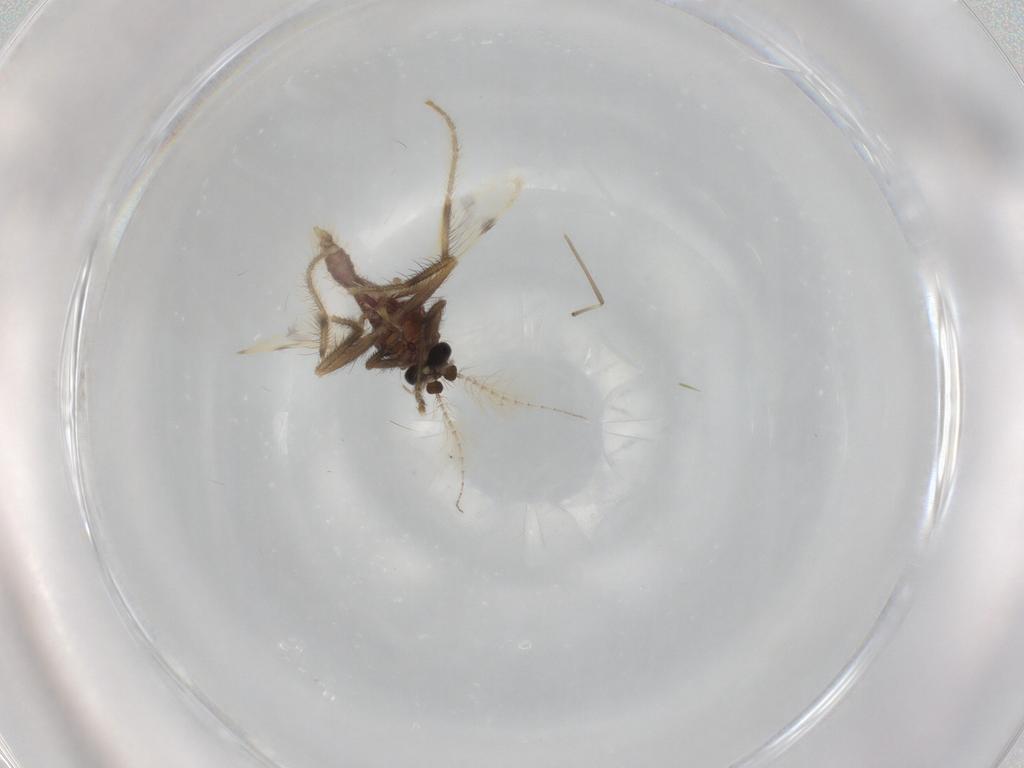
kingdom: Animalia
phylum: Arthropoda
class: Insecta
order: Diptera
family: Corethrellidae
